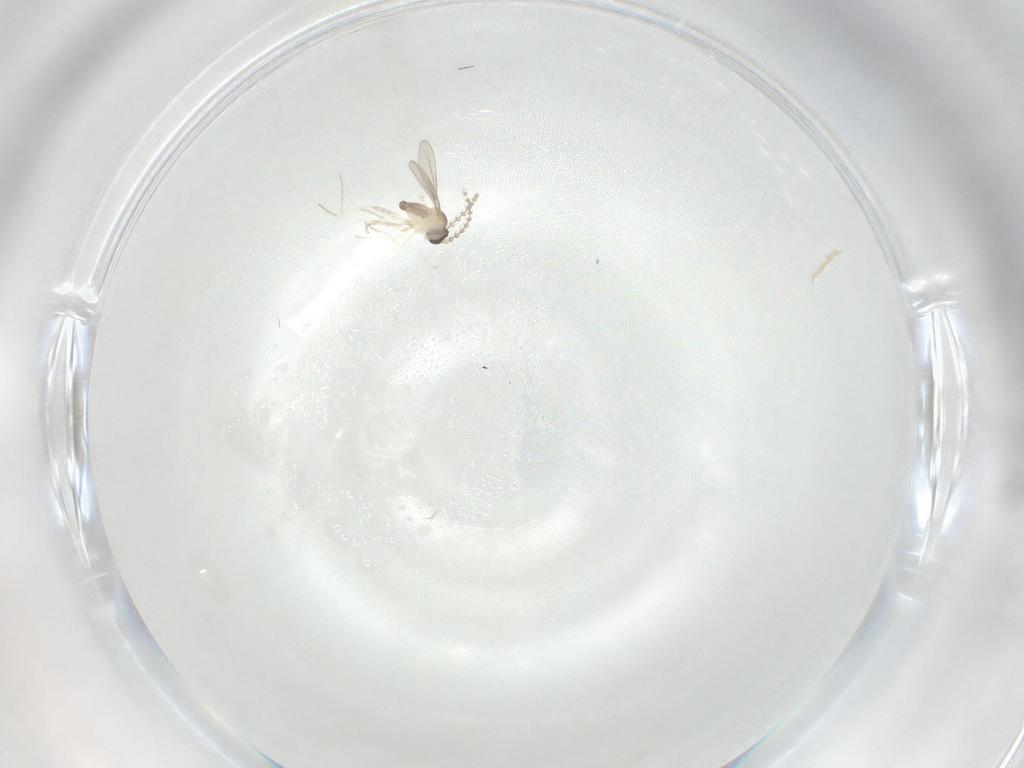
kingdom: Animalia
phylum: Arthropoda
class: Insecta
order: Diptera
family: Cecidomyiidae
